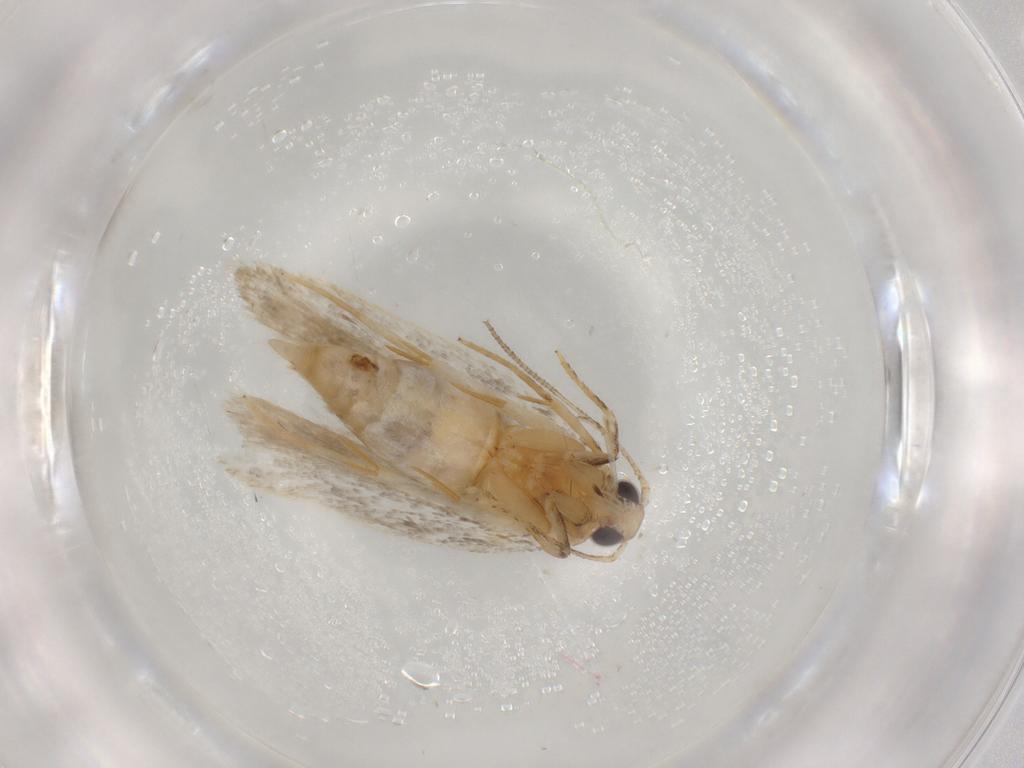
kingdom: Animalia
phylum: Arthropoda
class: Insecta
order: Lepidoptera
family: Autostichidae
